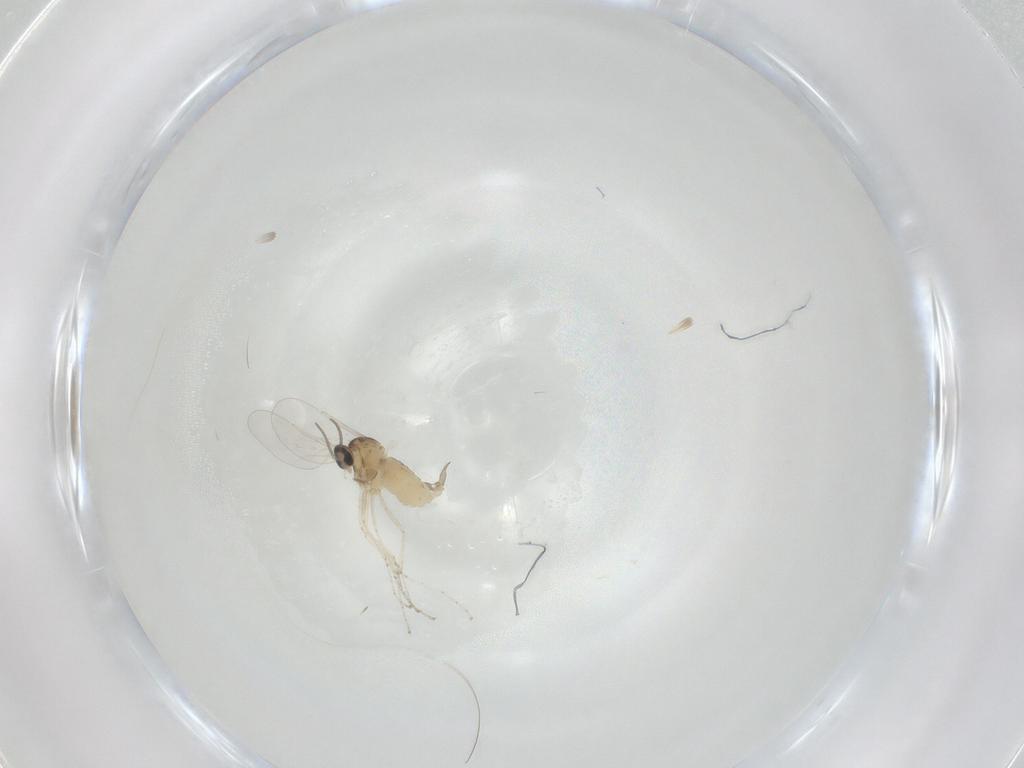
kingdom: Animalia
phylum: Arthropoda
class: Insecta
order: Diptera
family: Cecidomyiidae
